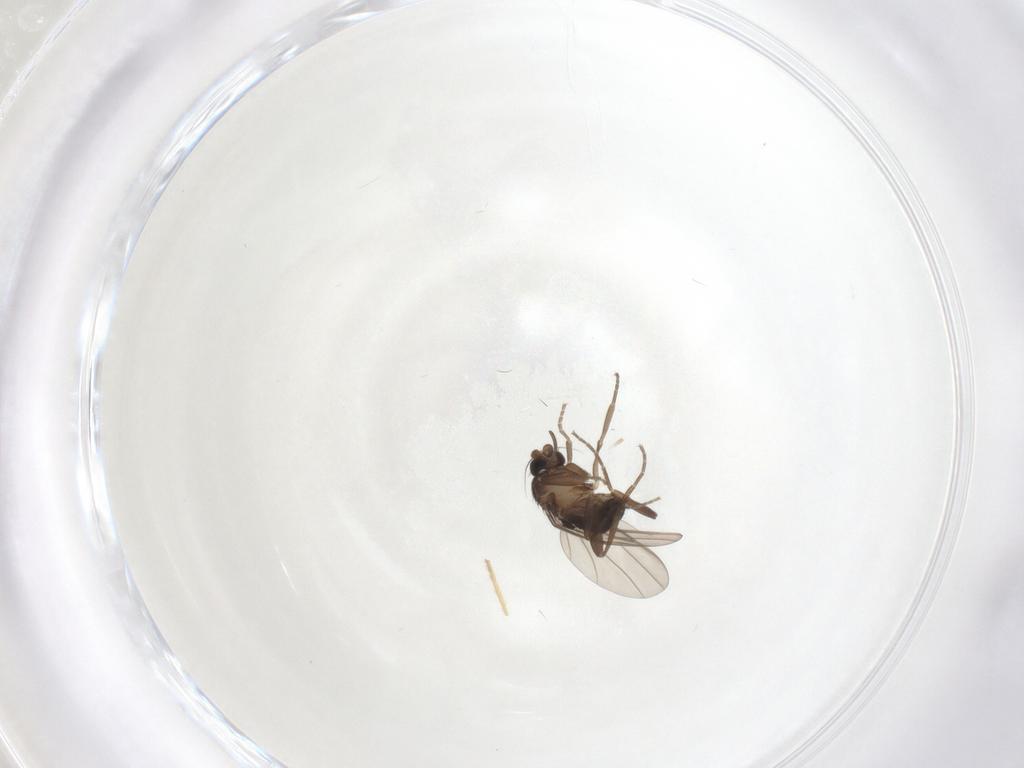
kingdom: Animalia
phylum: Arthropoda
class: Insecta
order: Diptera
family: Phoridae
